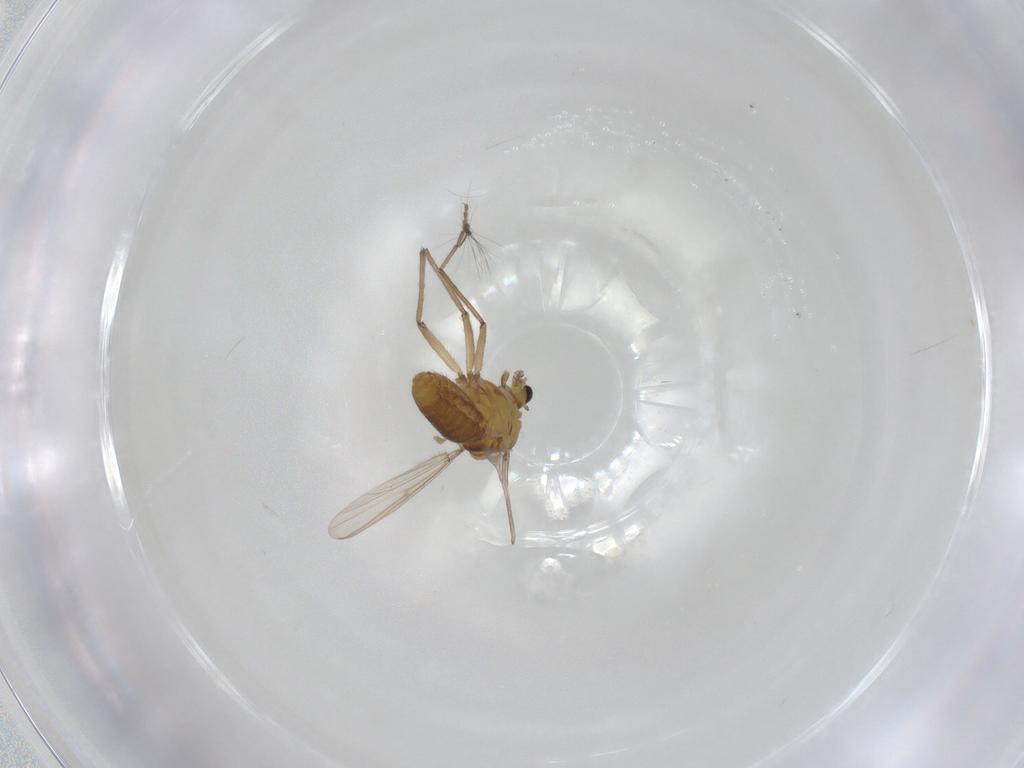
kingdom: Animalia
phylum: Arthropoda
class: Insecta
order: Diptera
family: Chironomidae
